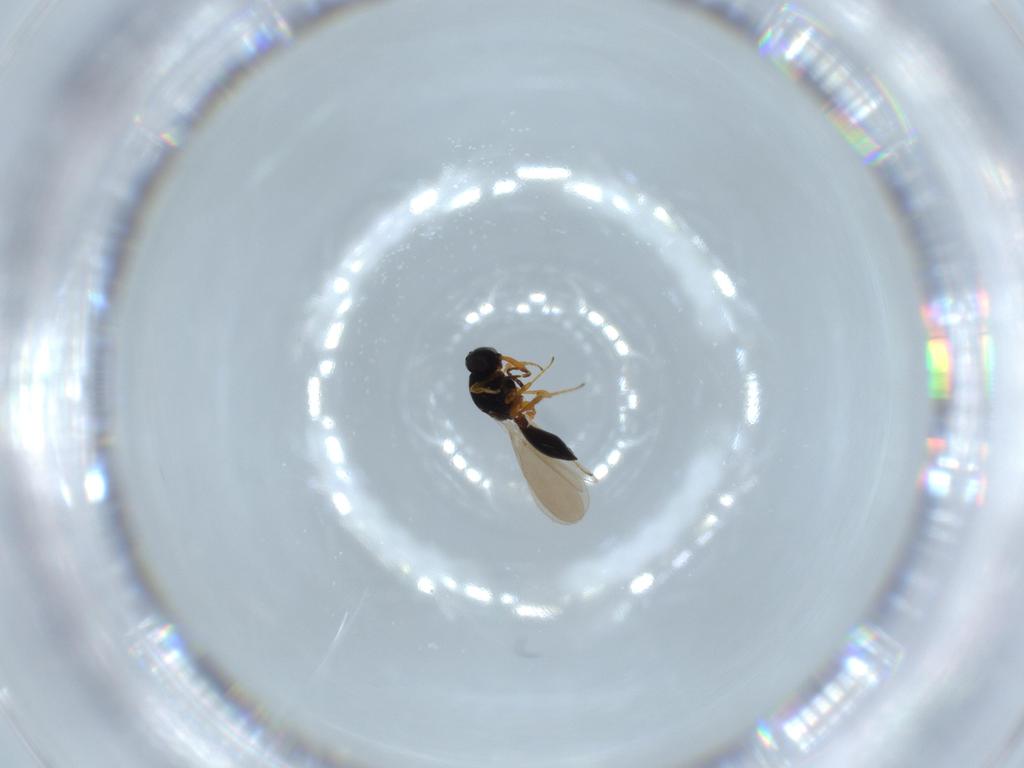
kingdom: Animalia
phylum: Arthropoda
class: Insecta
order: Hymenoptera
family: Platygastridae
